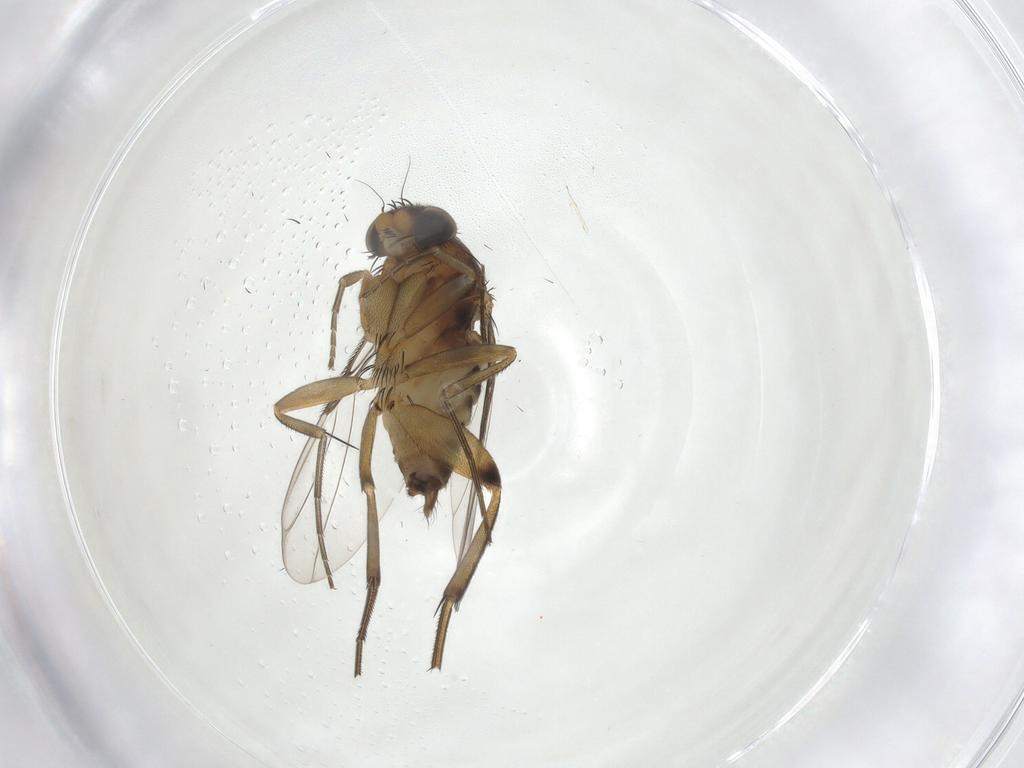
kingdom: Animalia
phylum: Arthropoda
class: Insecta
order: Diptera
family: Phoridae
